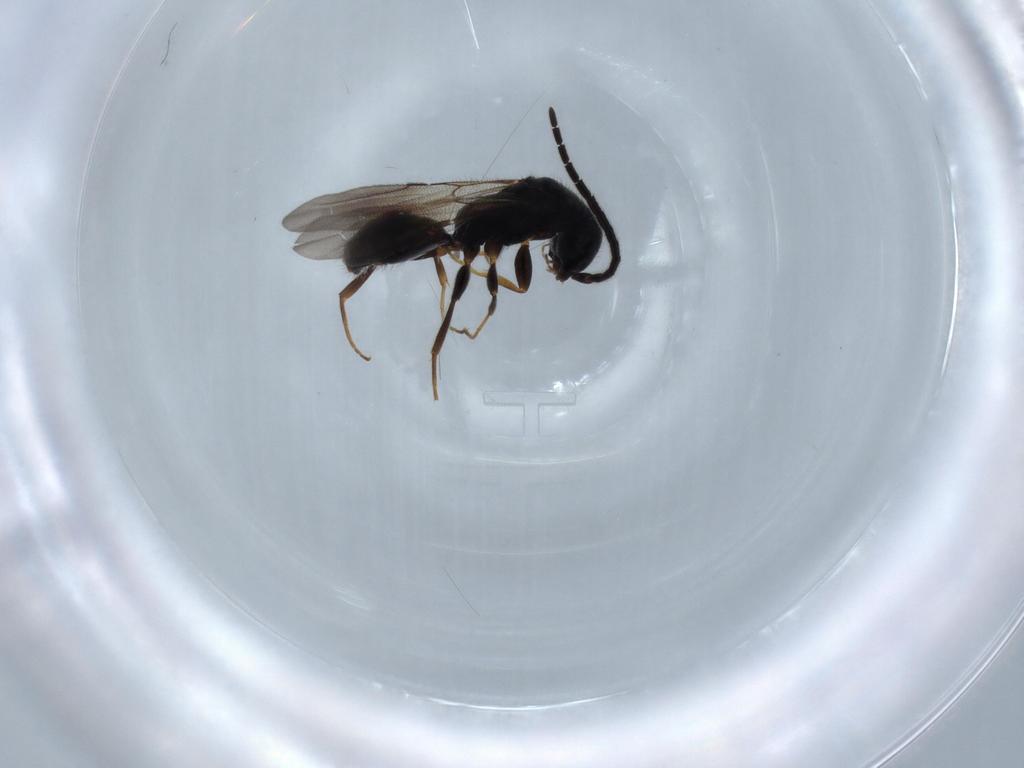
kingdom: Animalia
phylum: Arthropoda
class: Insecta
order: Hymenoptera
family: Bethylidae
